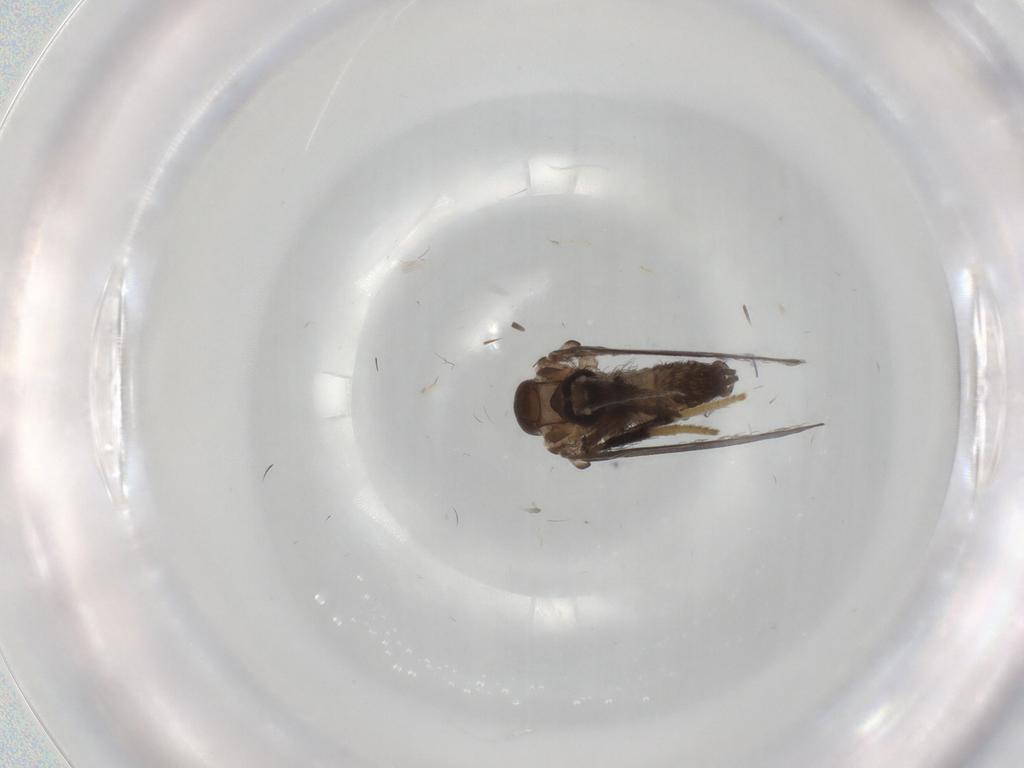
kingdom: Animalia
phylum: Arthropoda
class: Insecta
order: Diptera
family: Psychodidae
